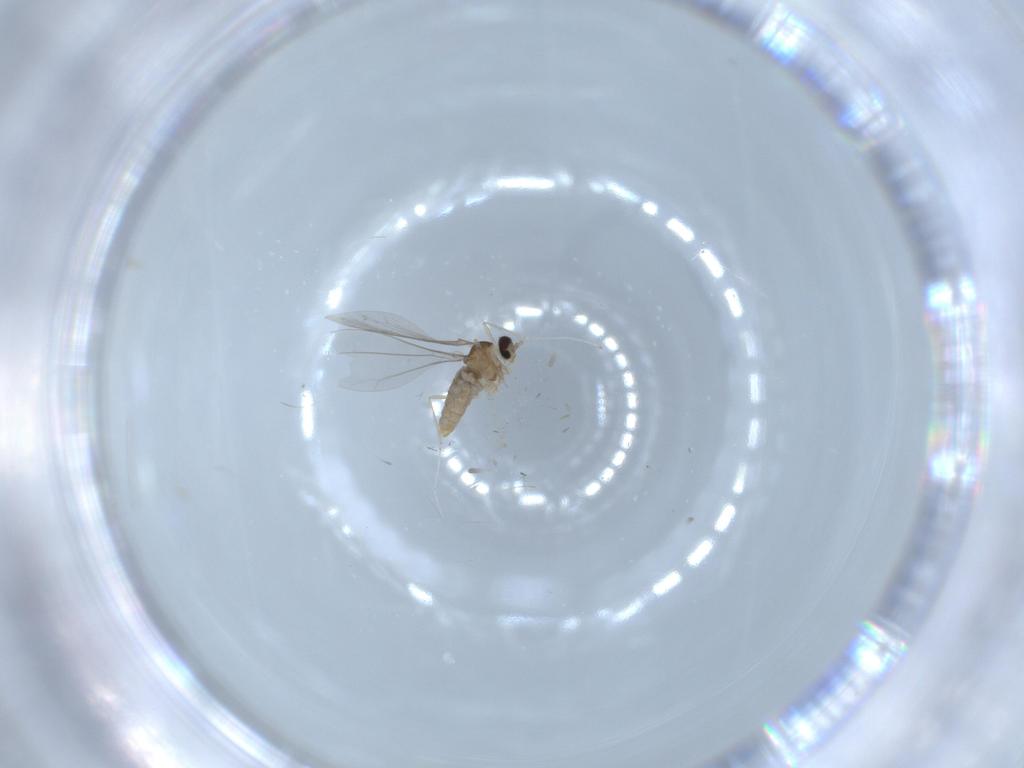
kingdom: Animalia
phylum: Arthropoda
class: Insecta
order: Diptera
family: Cecidomyiidae
